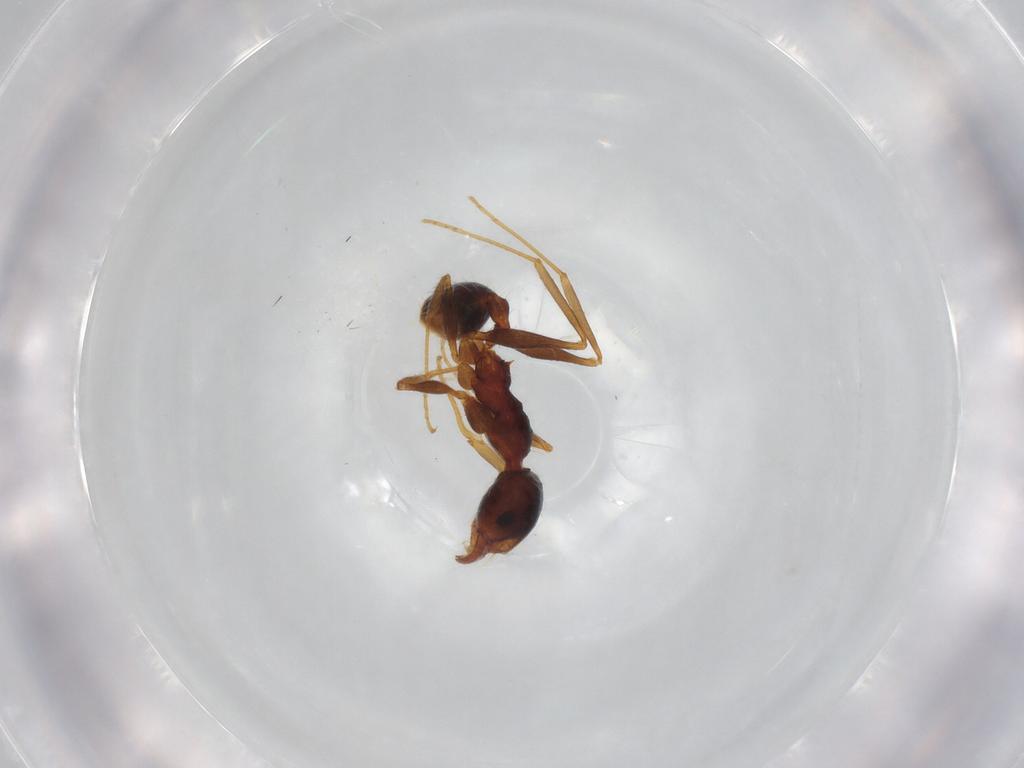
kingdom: Animalia
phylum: Arthropoda
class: Insecta
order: Hymenoptera
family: Formicidae
